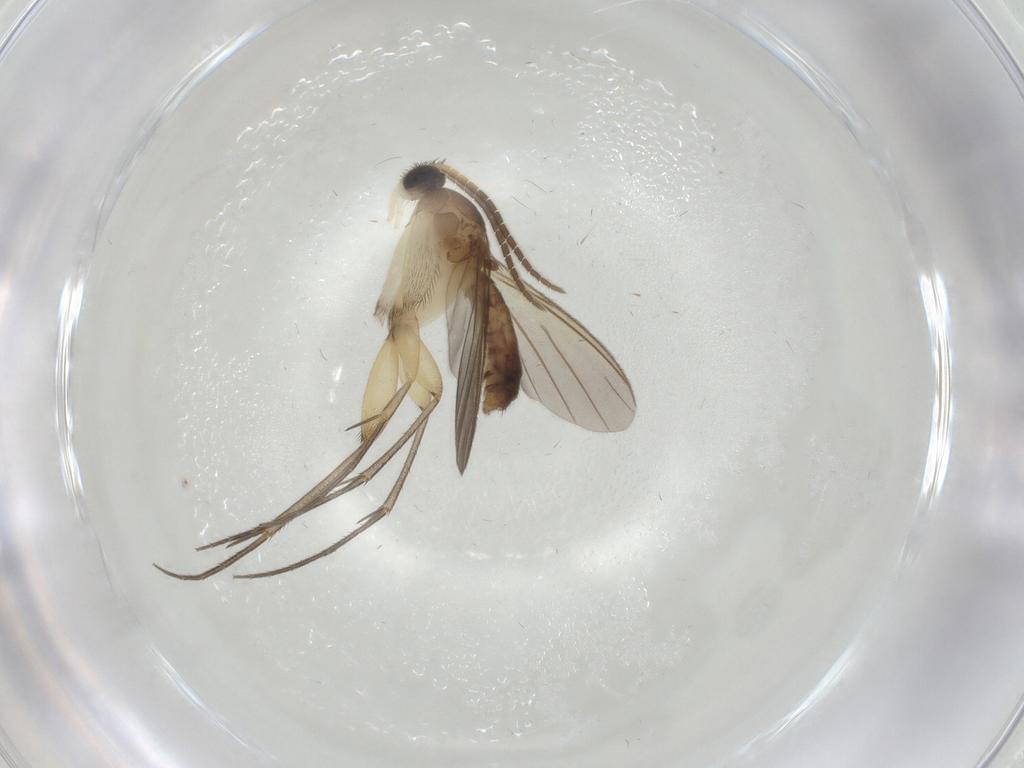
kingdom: Animalia
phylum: Arthropoda
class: Insecta
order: Diptera
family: Mycetophilidae
